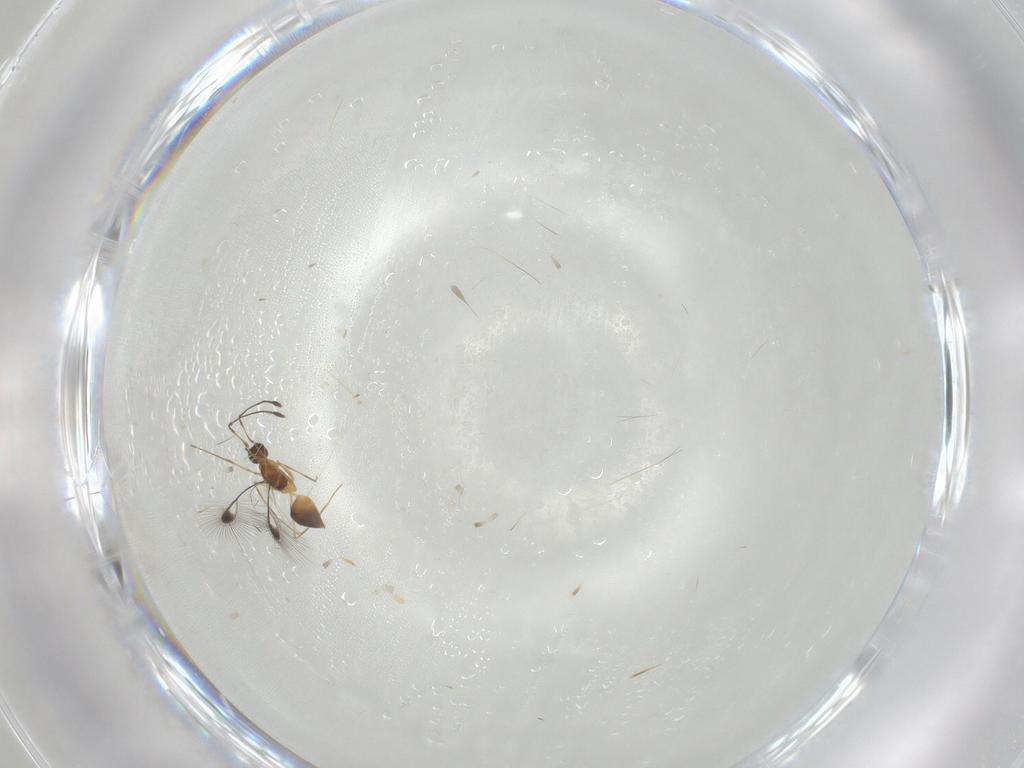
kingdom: Animalia
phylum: Arthropoda
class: Insecta
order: Hymenoptera
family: Mymaridae
